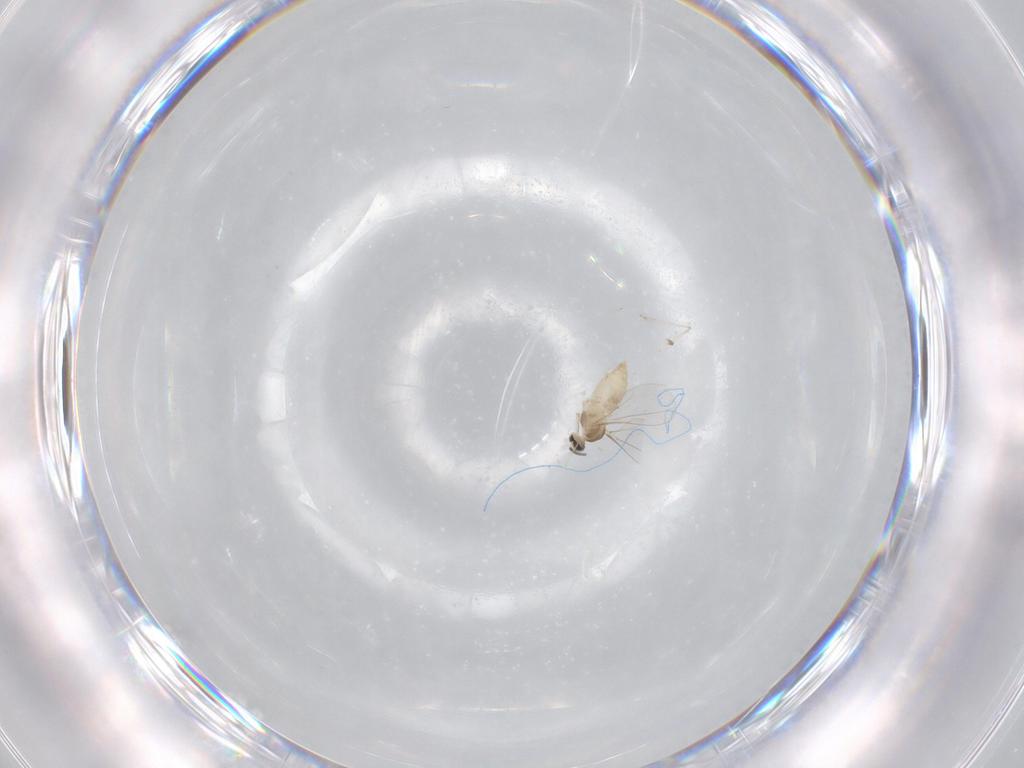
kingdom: Animalia
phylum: Arthropoda
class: Insecta
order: Diptera
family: Cecidomyiidae
